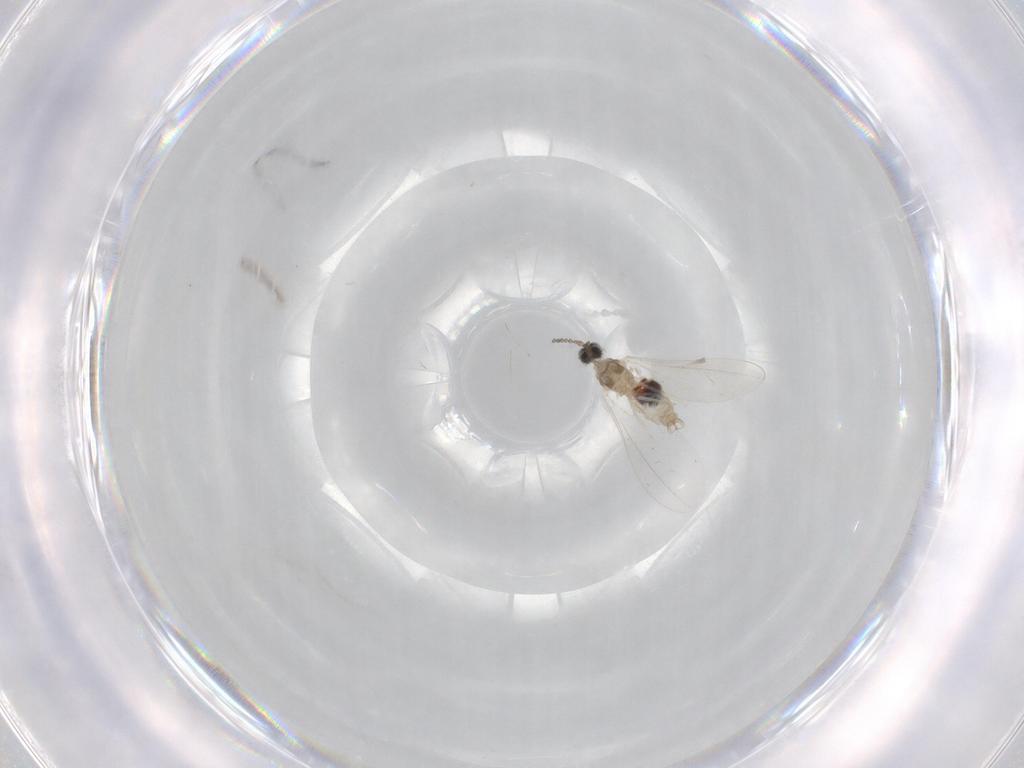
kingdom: Animalia
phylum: Arthropoda
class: Insecta
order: Diptera
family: Cecidomyiidae
